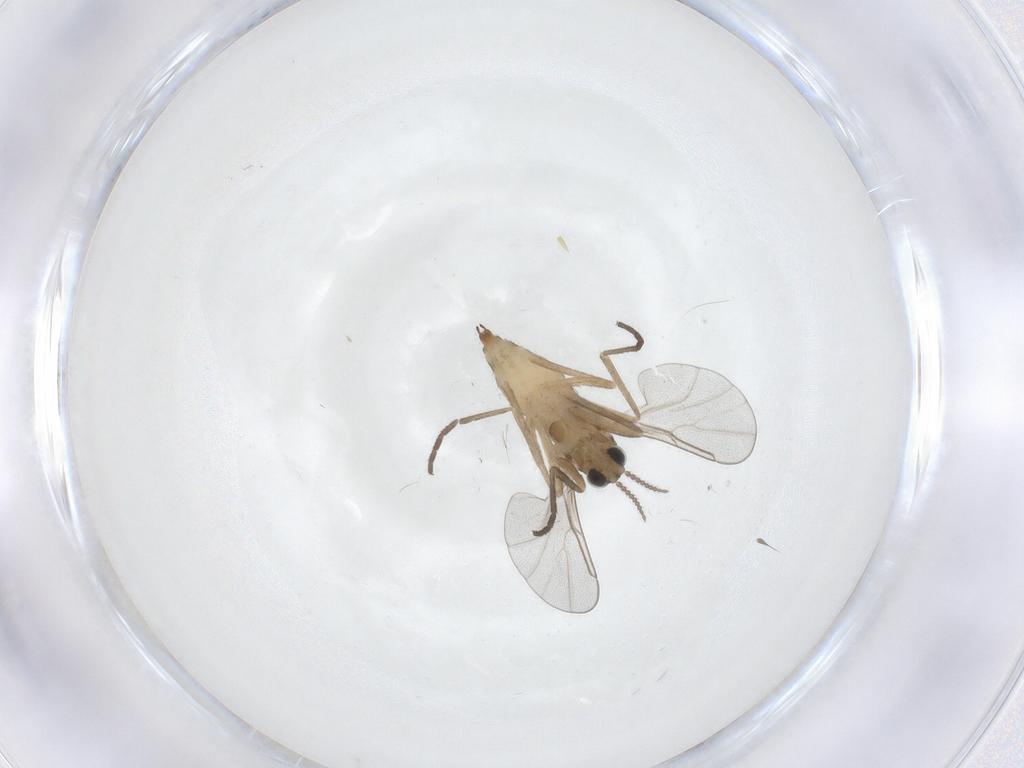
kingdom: Animalia
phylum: Arthropoda
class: Insecta
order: Diptera
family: Cecidomyiidae
